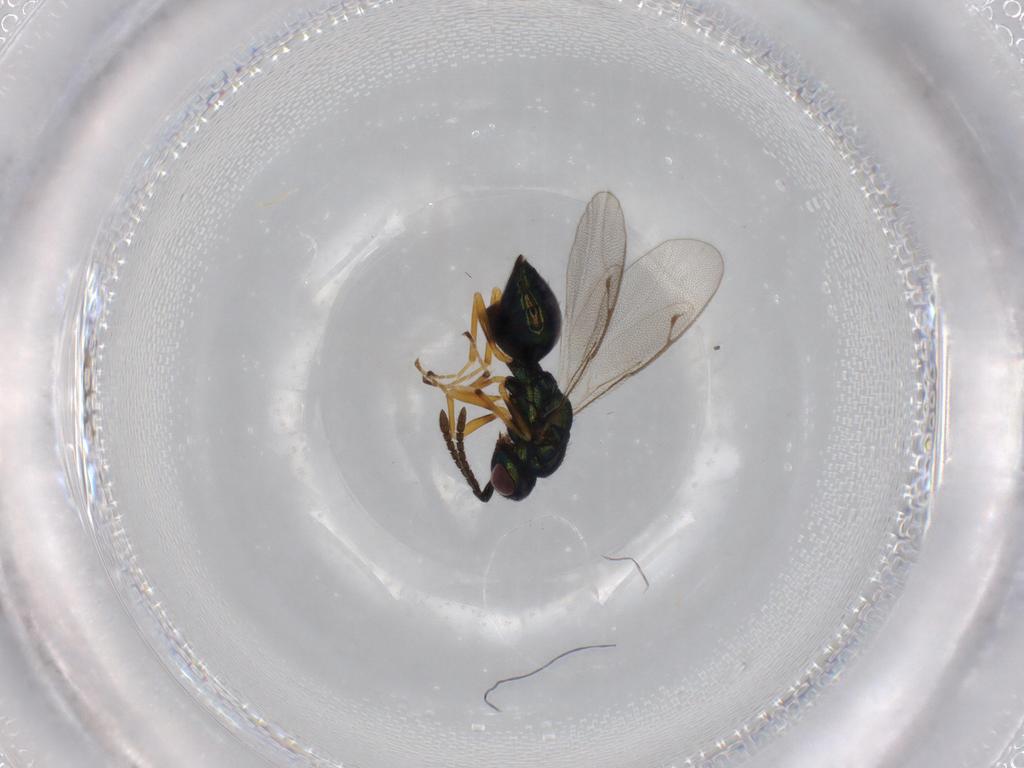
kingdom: Animalia
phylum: Arthropoda
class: Insecta
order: Hymenoptera
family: Pteromalidae
